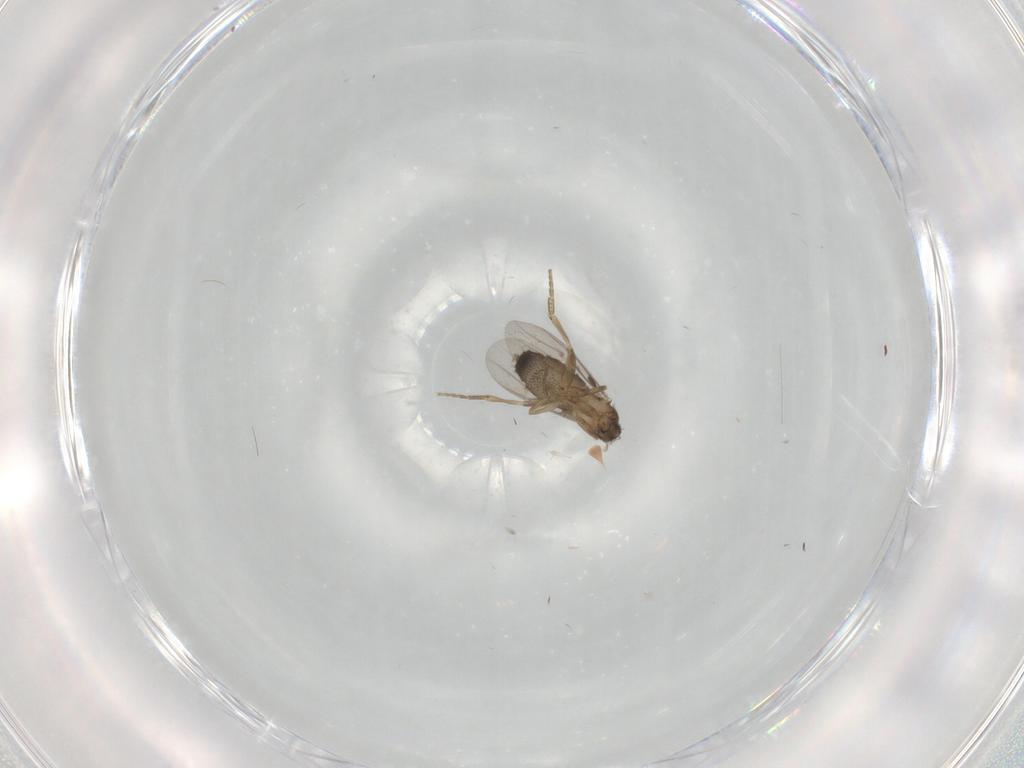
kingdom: Animalia
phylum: Arthropoda
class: Insecta
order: Diptera
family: Phoridae
